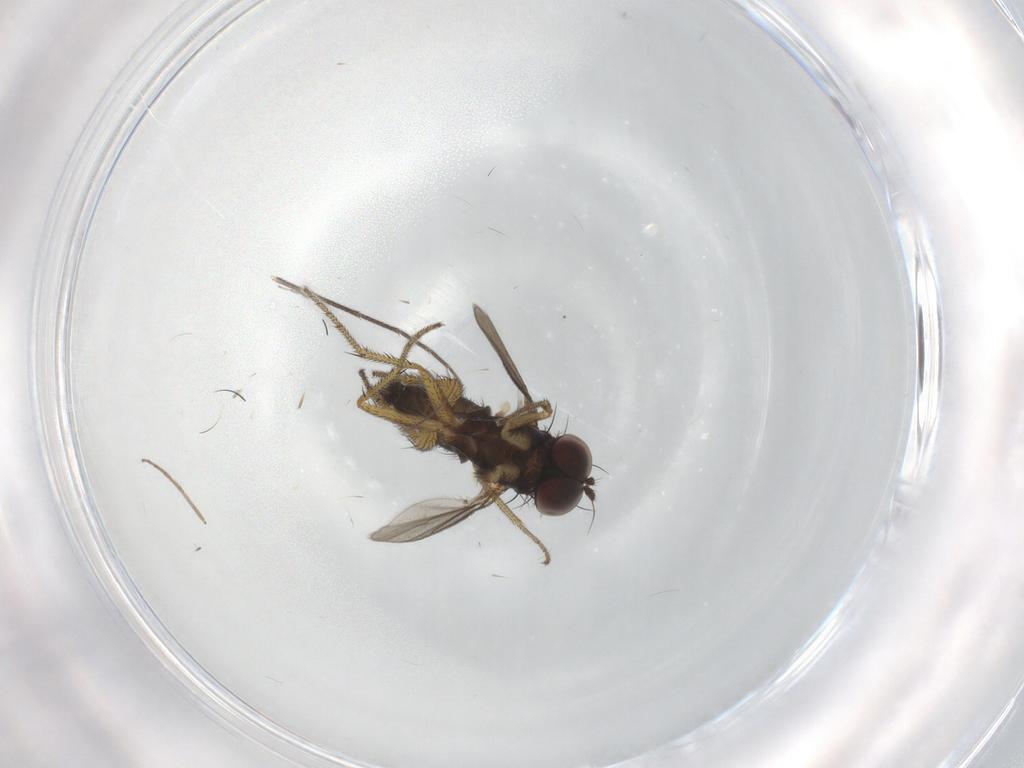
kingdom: Animalia
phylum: Arthropoda
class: Insecta
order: Diptera
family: Chironomidae
